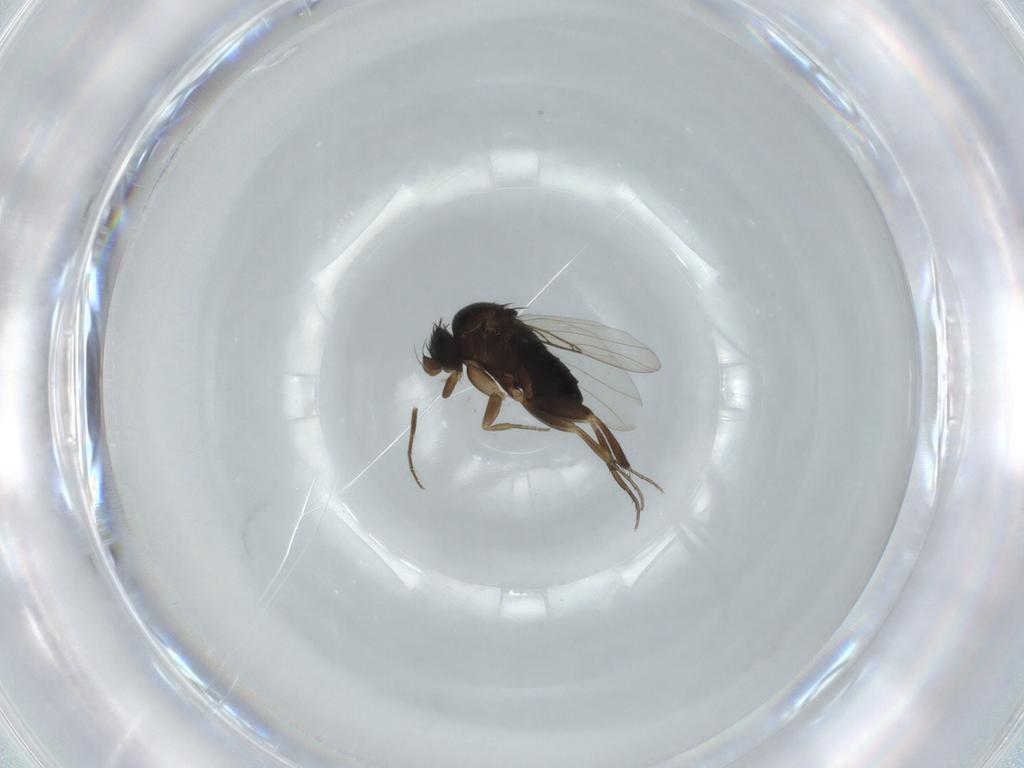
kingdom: Animalia
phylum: Arthropoda
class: Insecta
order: Diptera
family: Phoridae
